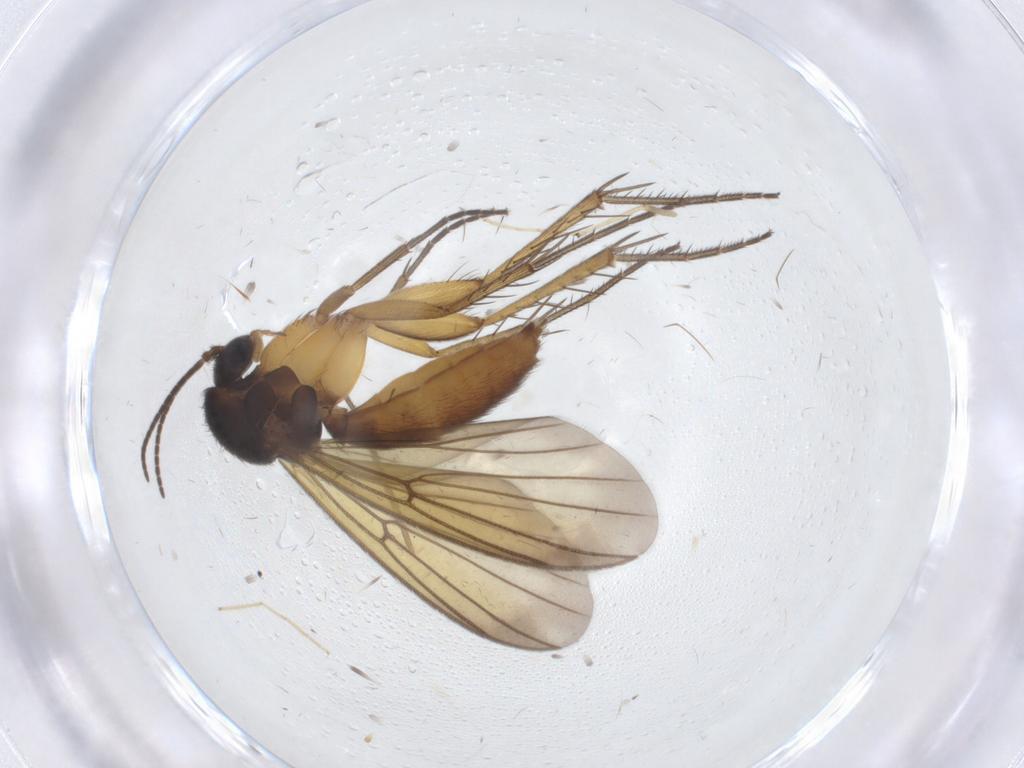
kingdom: Animalia
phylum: Arthropoda
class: Insecta
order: Diptera
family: Mycetophilidae
